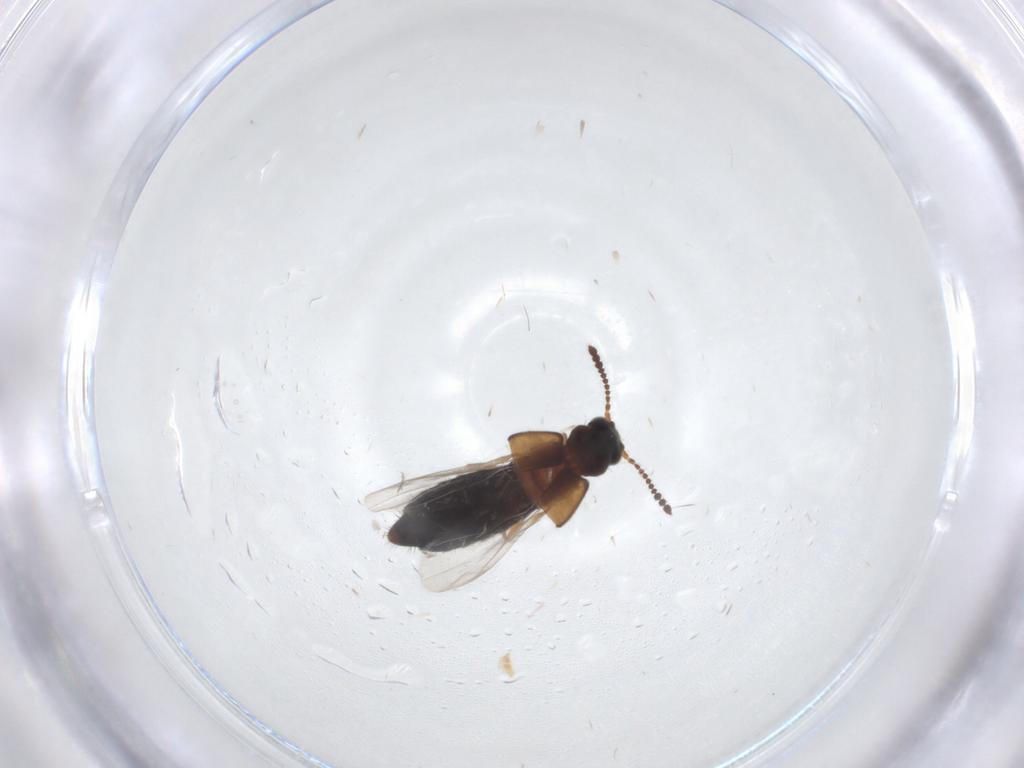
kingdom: Animalia
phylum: Arthropoda
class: Insecta
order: Coleoptera
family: Staphylinidae
